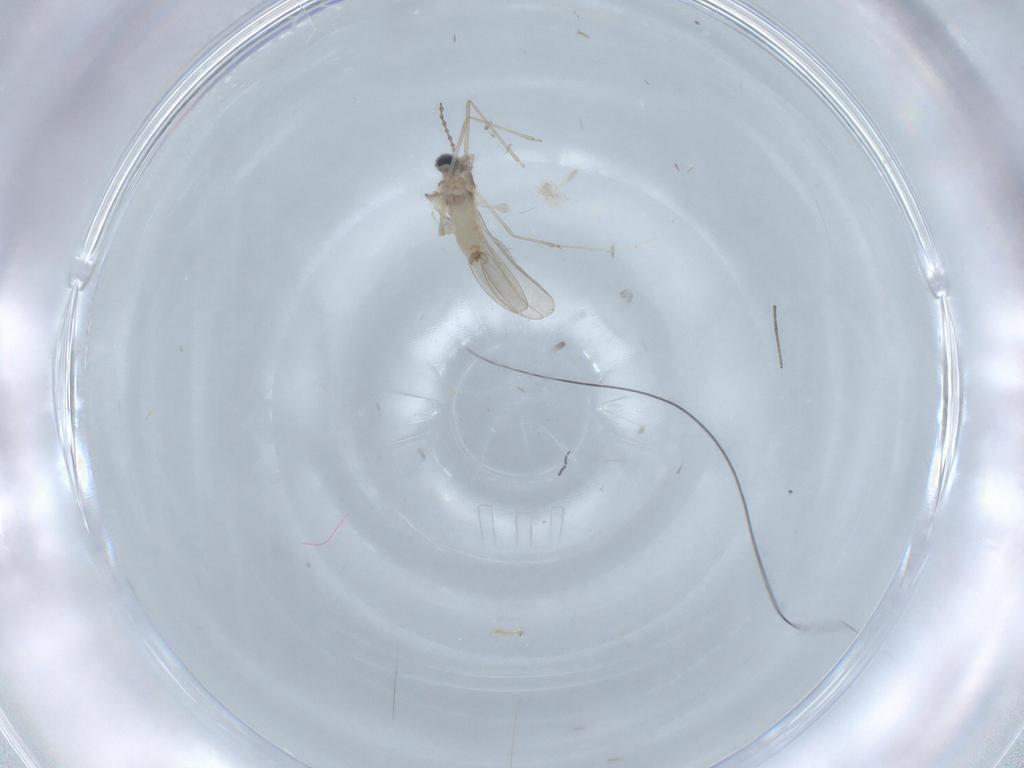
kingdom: Animalia
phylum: Arthropoda
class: Insecta
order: Diptera
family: Cecidomyiidae
